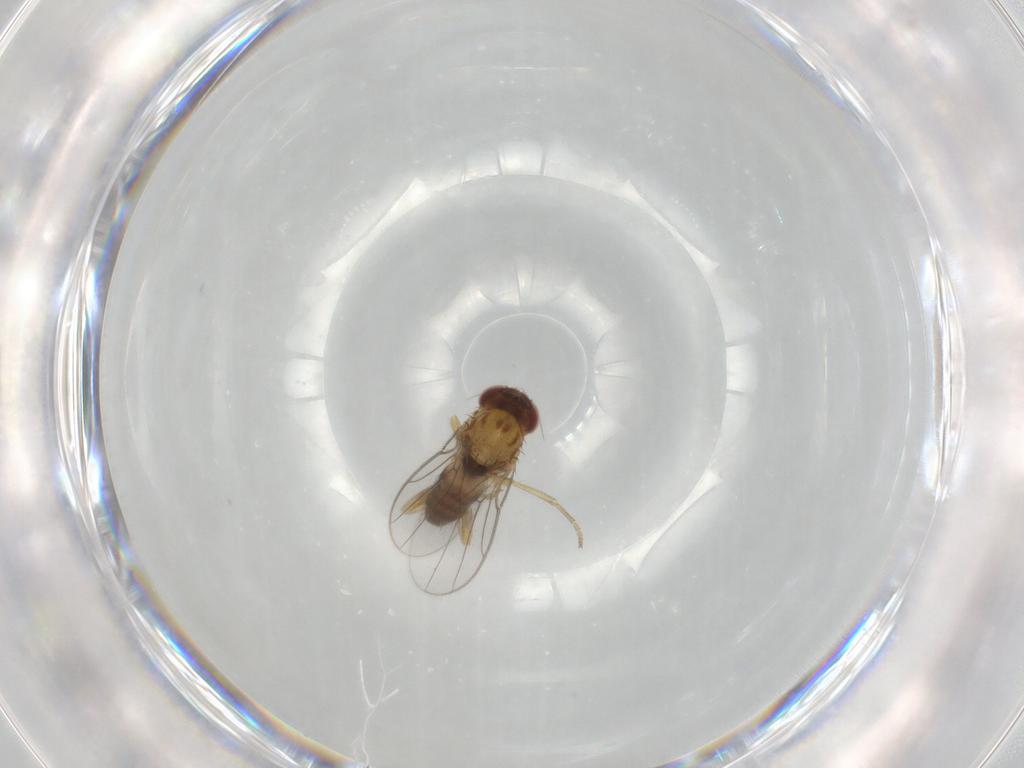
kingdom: Animalia
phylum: Arthropoda
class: Insecta
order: Diptera
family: Chloropidae
